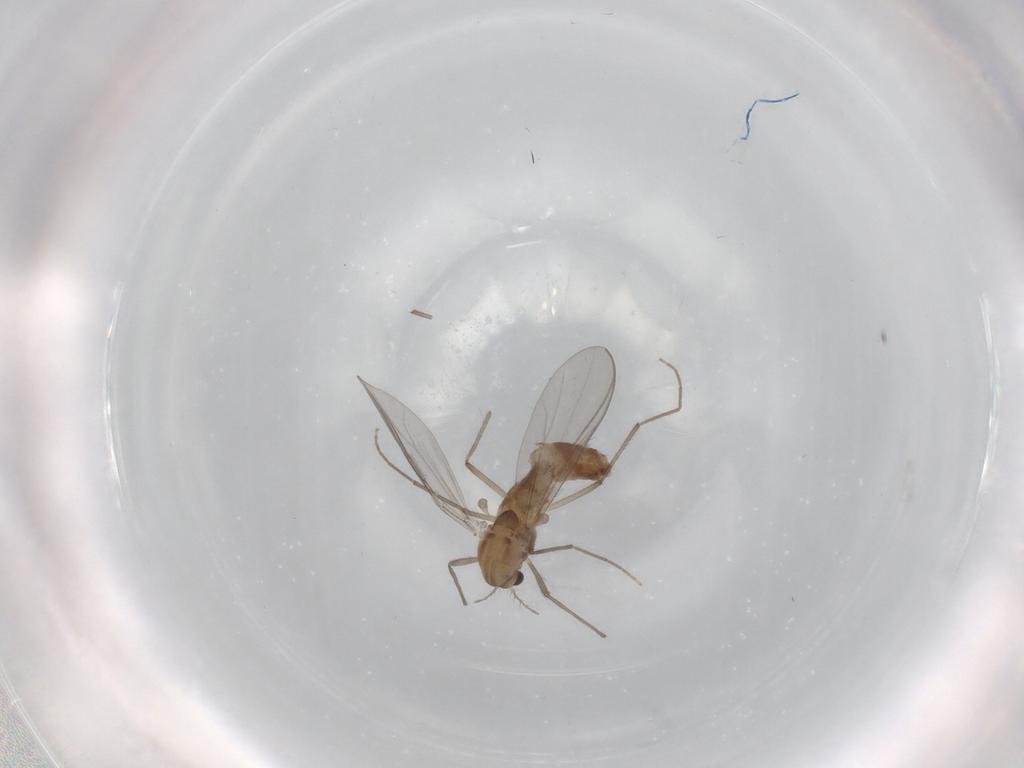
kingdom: Animalia
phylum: Arthropoda
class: Insecta
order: Diptera
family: Chironomidae
